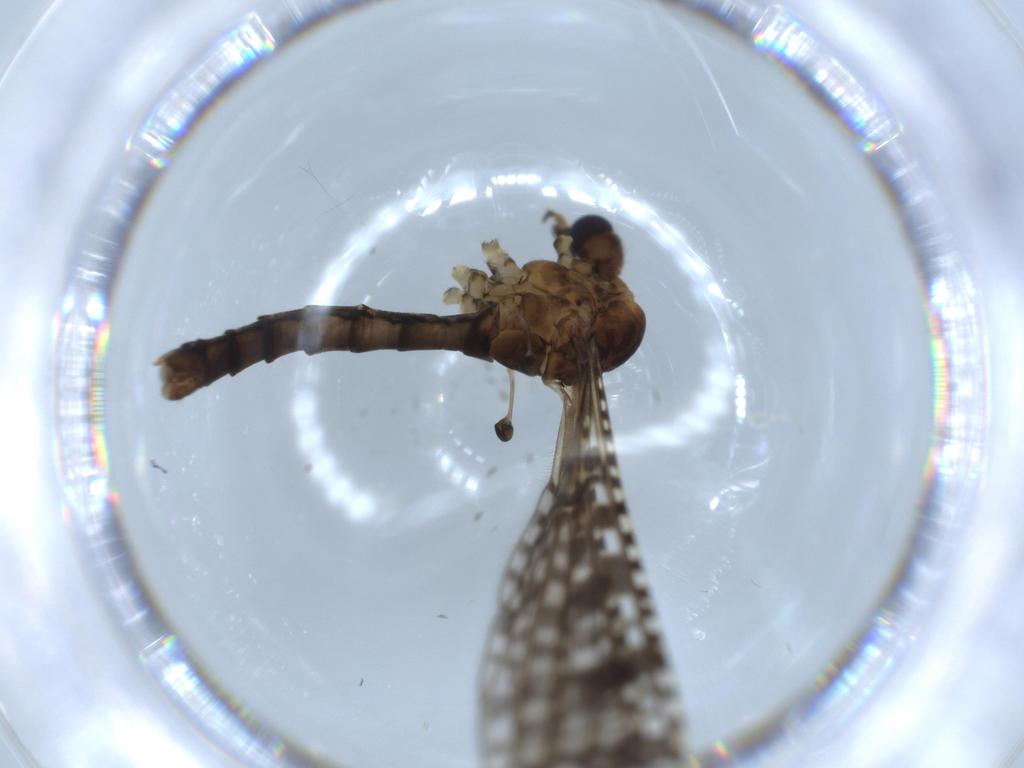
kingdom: Animalia
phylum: Arthropoda
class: Insecta
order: Diptera
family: Limoniidae
